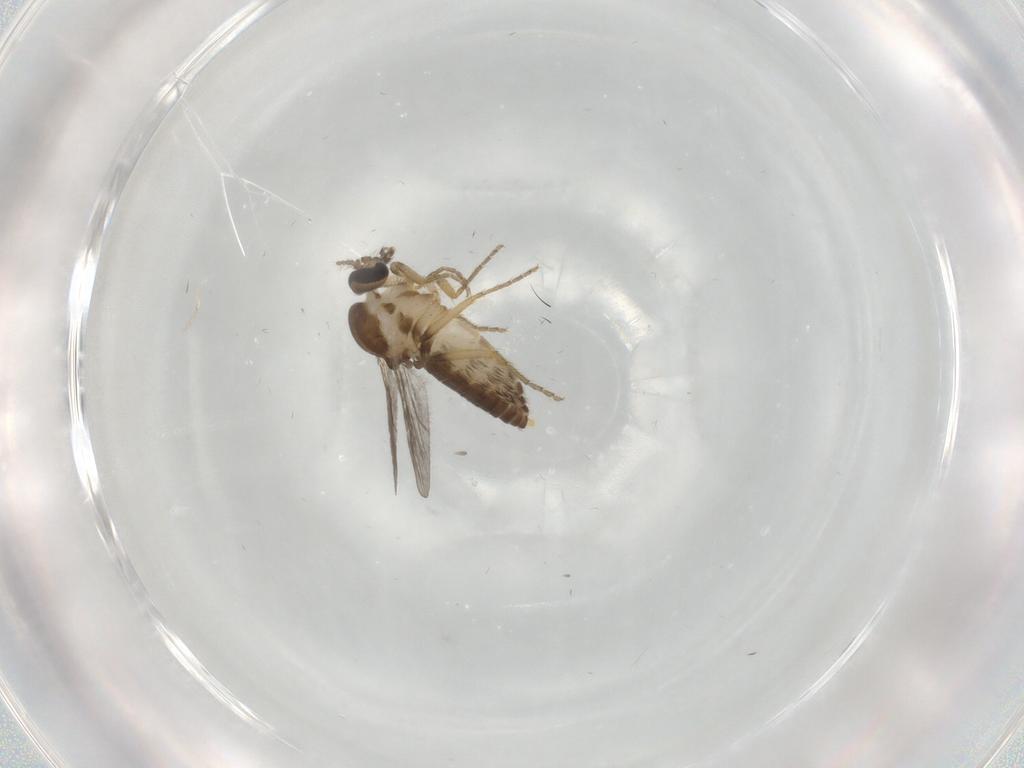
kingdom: Animalia
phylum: Arthropoda
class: Insecta
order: Diptera
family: Ceratopogonidae
